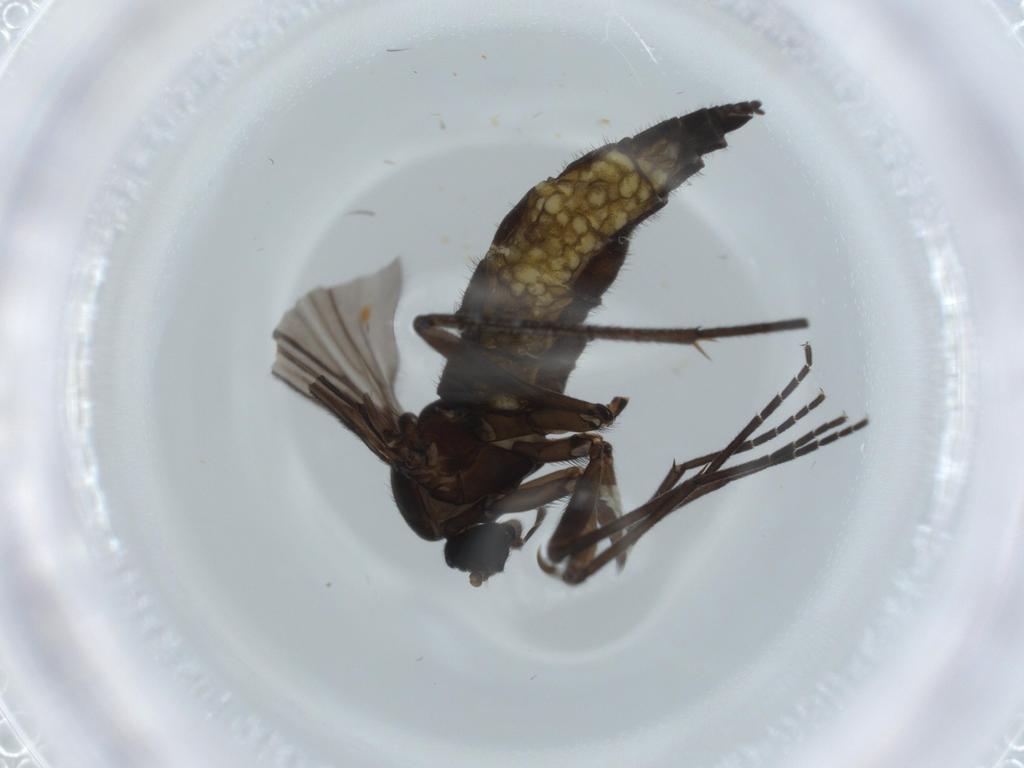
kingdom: Animalia
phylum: Arthropoda
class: Insecta
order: Diptera
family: Sciaridae
